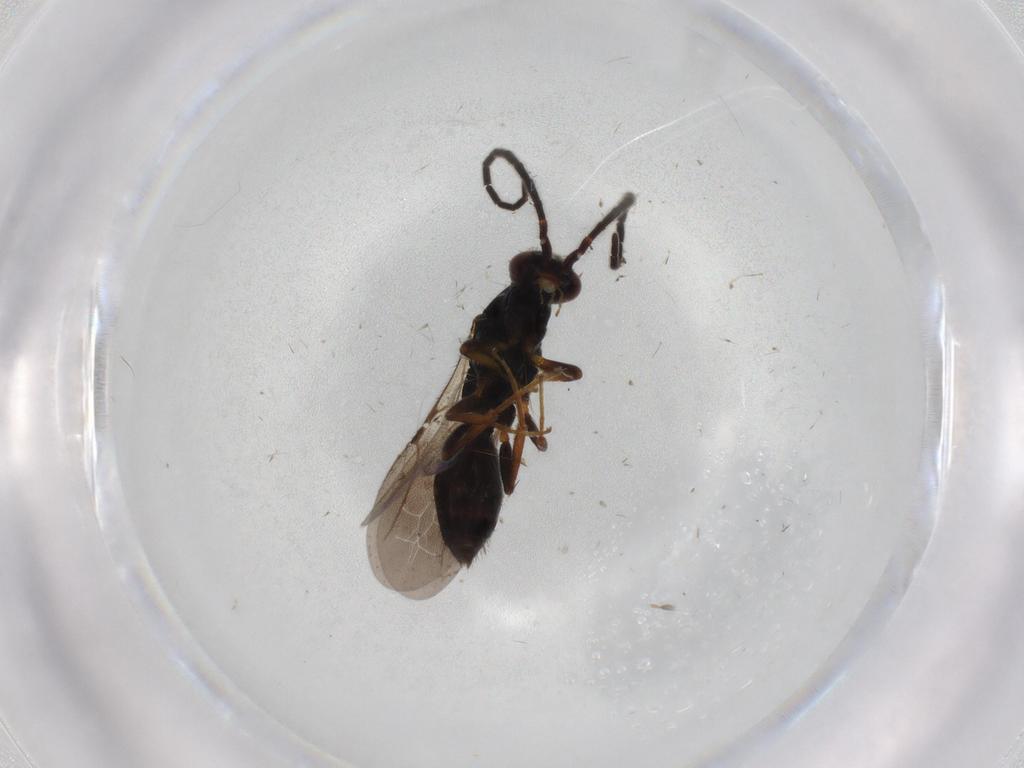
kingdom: Animalia
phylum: Arthropoda
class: Insecta
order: Hymenoptera
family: Bethylidae
